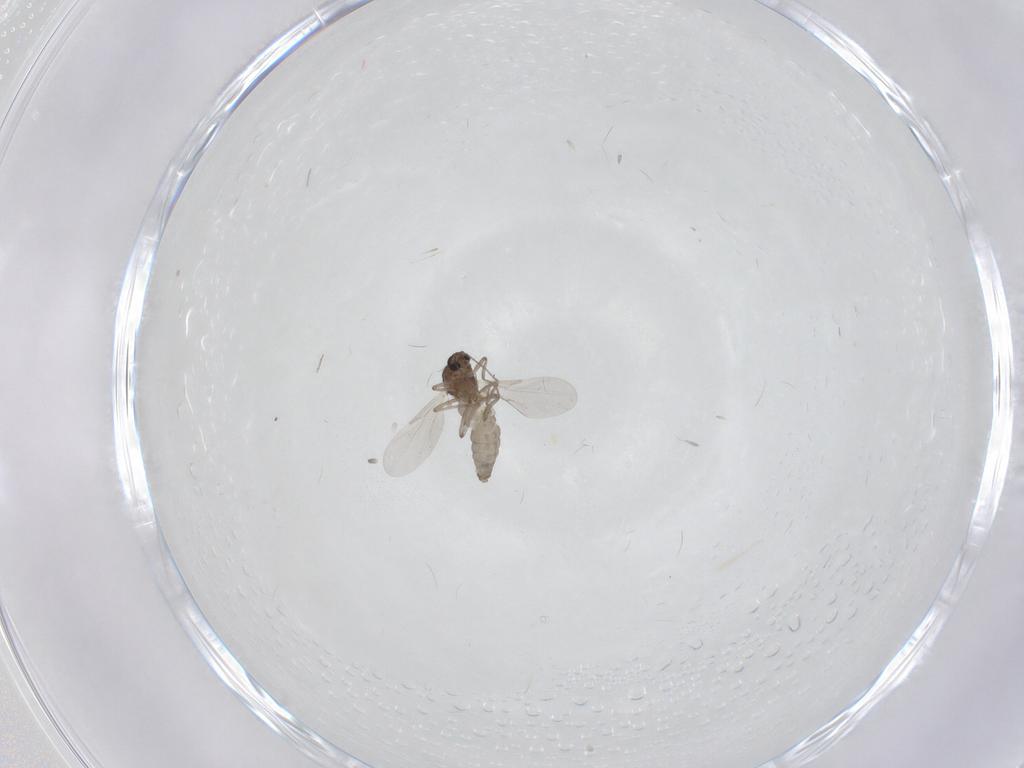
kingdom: Animalia
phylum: Arthropoda
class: Insecta
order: Diptera
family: Ceratopogonidae
